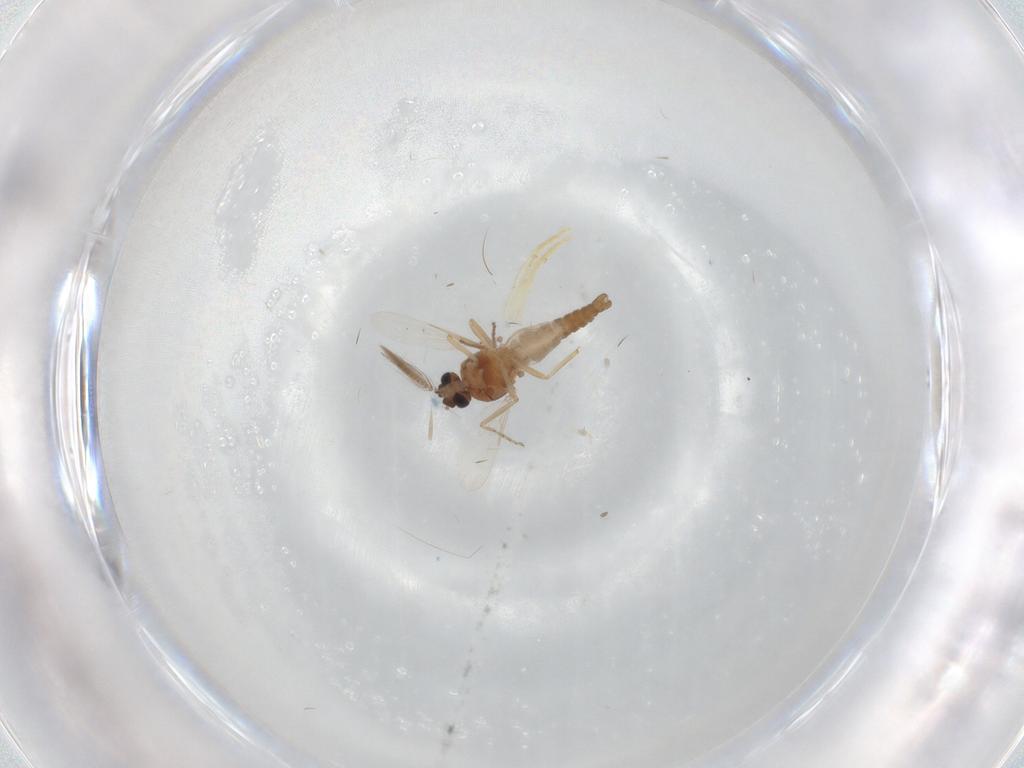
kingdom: Animalia
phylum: Arthropoda
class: Insecta
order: Diptera
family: Ceratopogonidae
